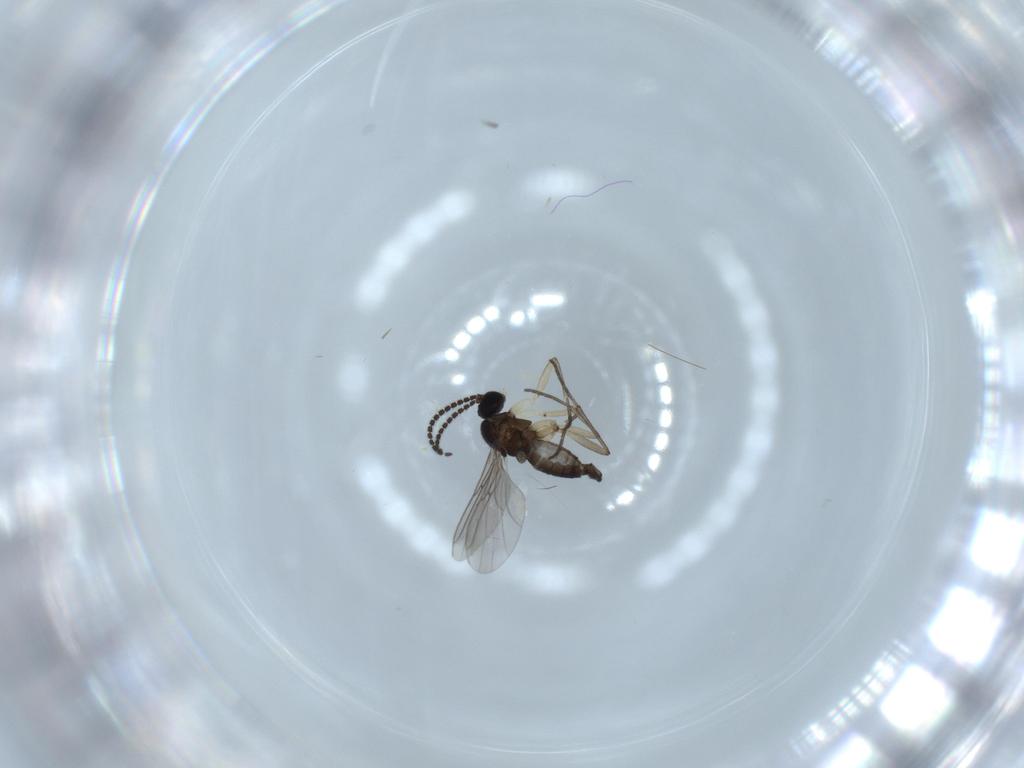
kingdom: Animalia
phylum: Arthropoda
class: Insecta
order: Diptera
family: Sciaridae
